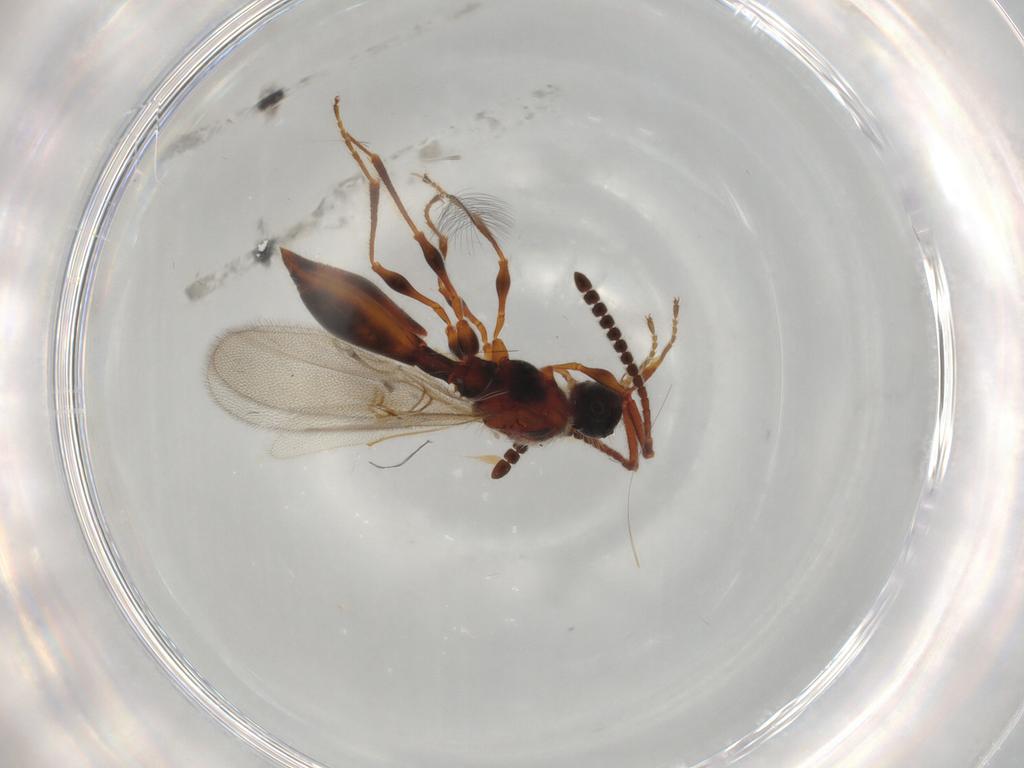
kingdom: Animalia
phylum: Arthropoda
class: Insecta
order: Hymenoptera
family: Diapriidae
